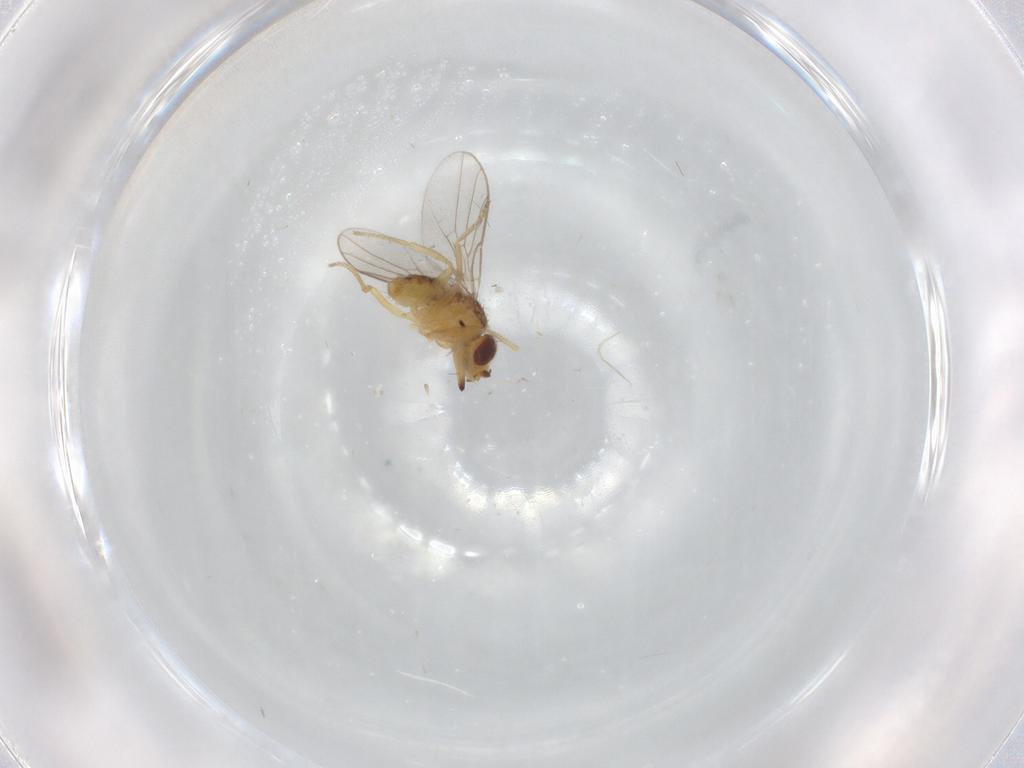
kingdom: Animalia
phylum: Arthropoda
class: Insecta
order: Diptera
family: Chloropidae
